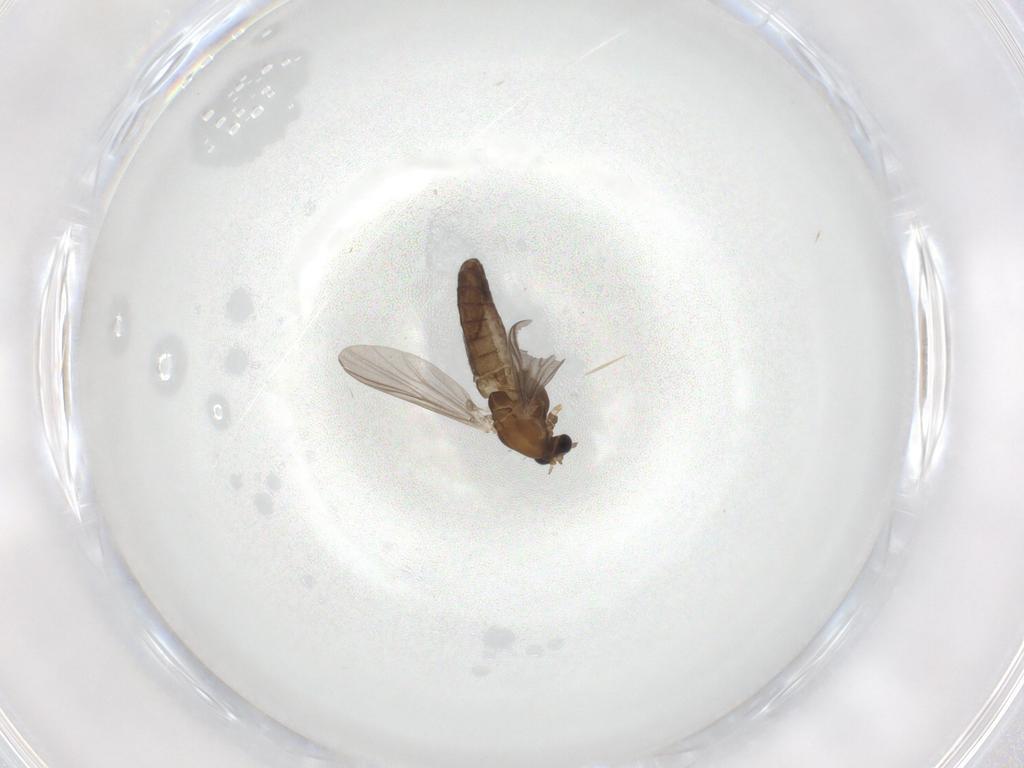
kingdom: Animalia
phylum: Arthropoda
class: Insecta
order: Diptera
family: Chironomidae
